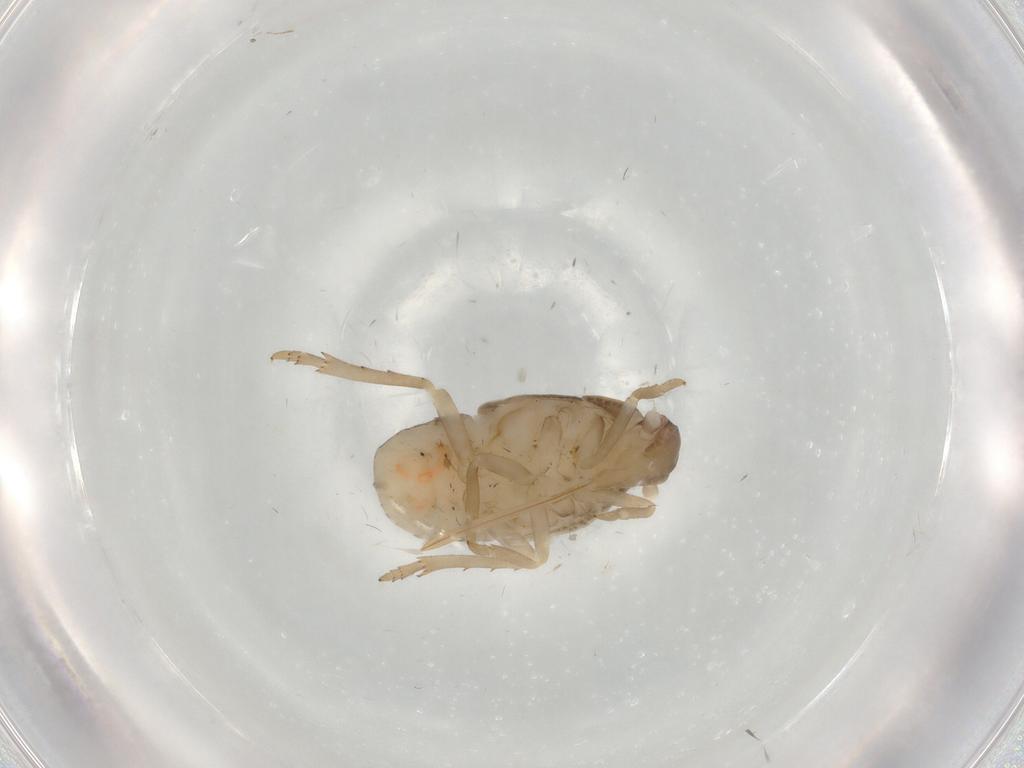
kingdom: Animalia
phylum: Arthropoda
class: Insecta
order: Hemiptera
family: Achilidae
